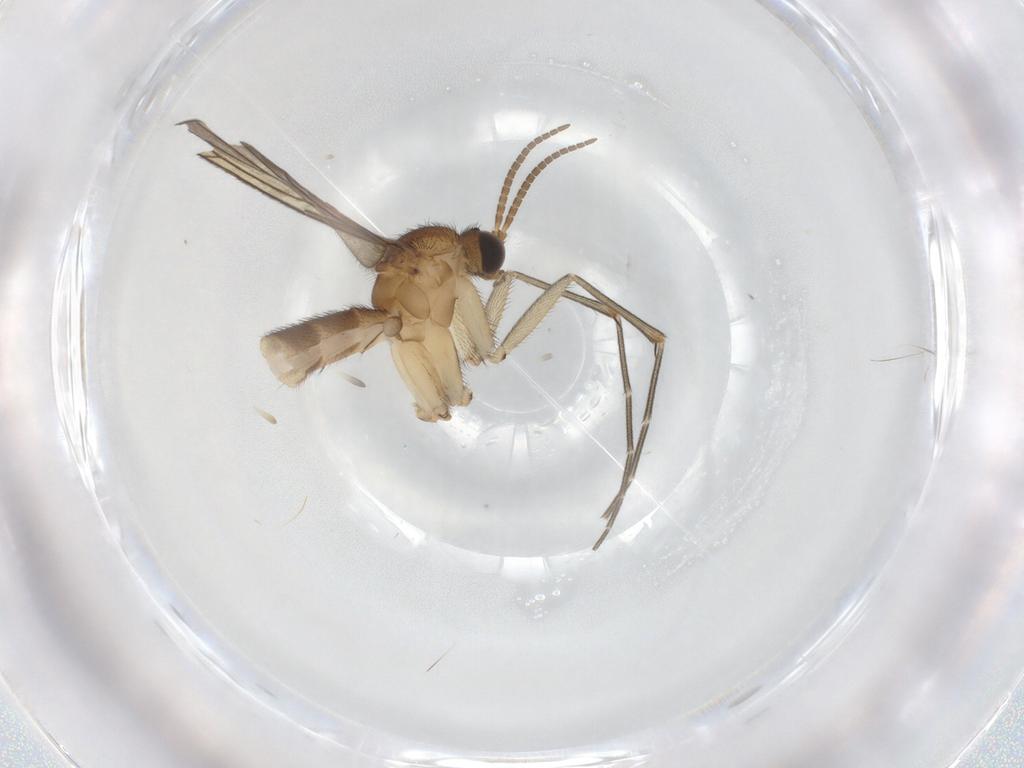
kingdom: Animalia
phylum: Arthropoda
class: Insecta
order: Diptera
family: Sciaridae
